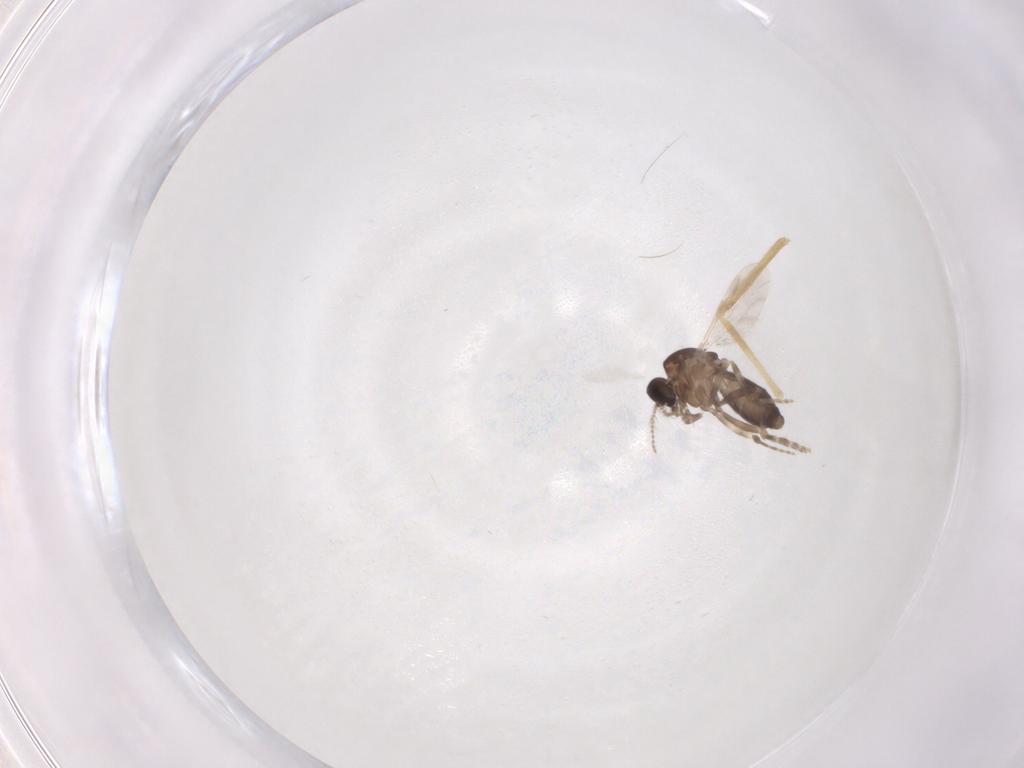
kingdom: Animalia
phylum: Arthropoda
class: Insecta
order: Diptera
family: Ceratopogonidae
